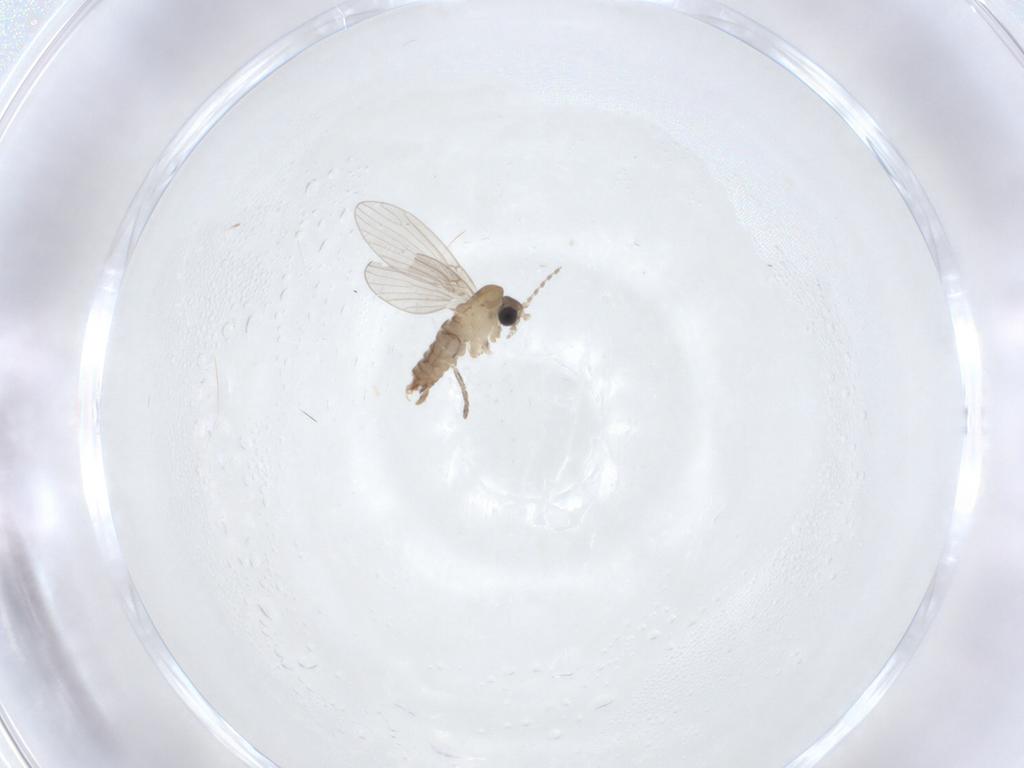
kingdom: Animalia
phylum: Arthropoda
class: Insecta
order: Diptera
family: Psychodidae
